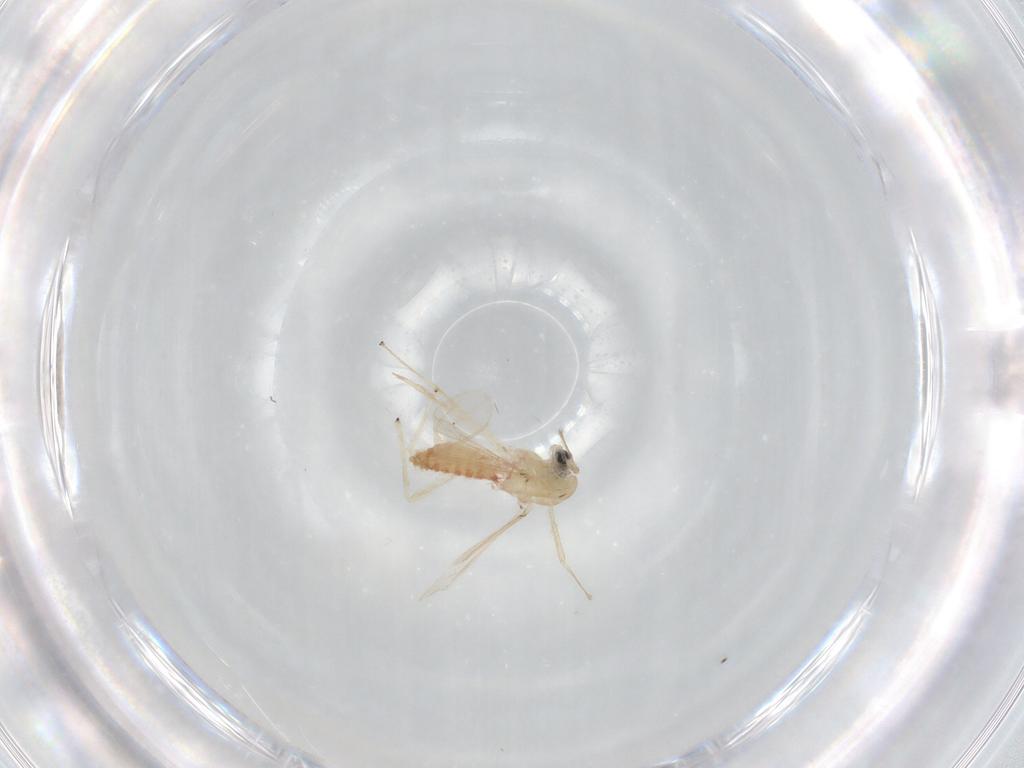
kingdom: Animalia
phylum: Arthropoda
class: Insecta
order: Diptera
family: Chironomidae
